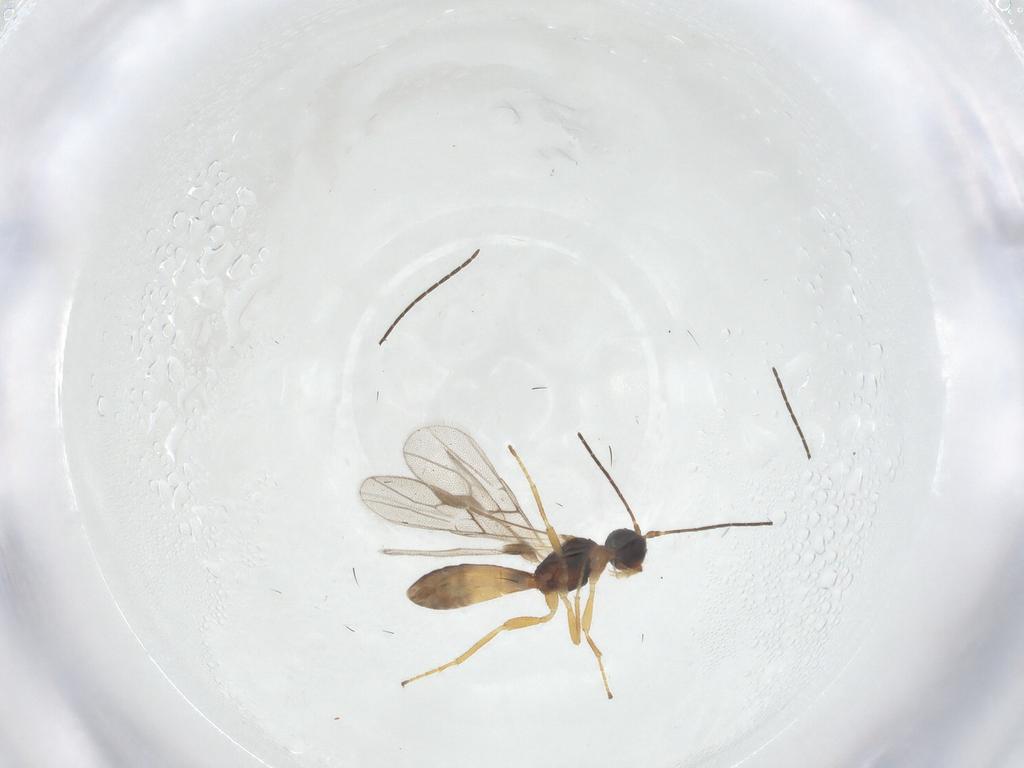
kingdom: Animalia
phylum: Arthropoda
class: Insecta
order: Hymenoptera
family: Braconidae
